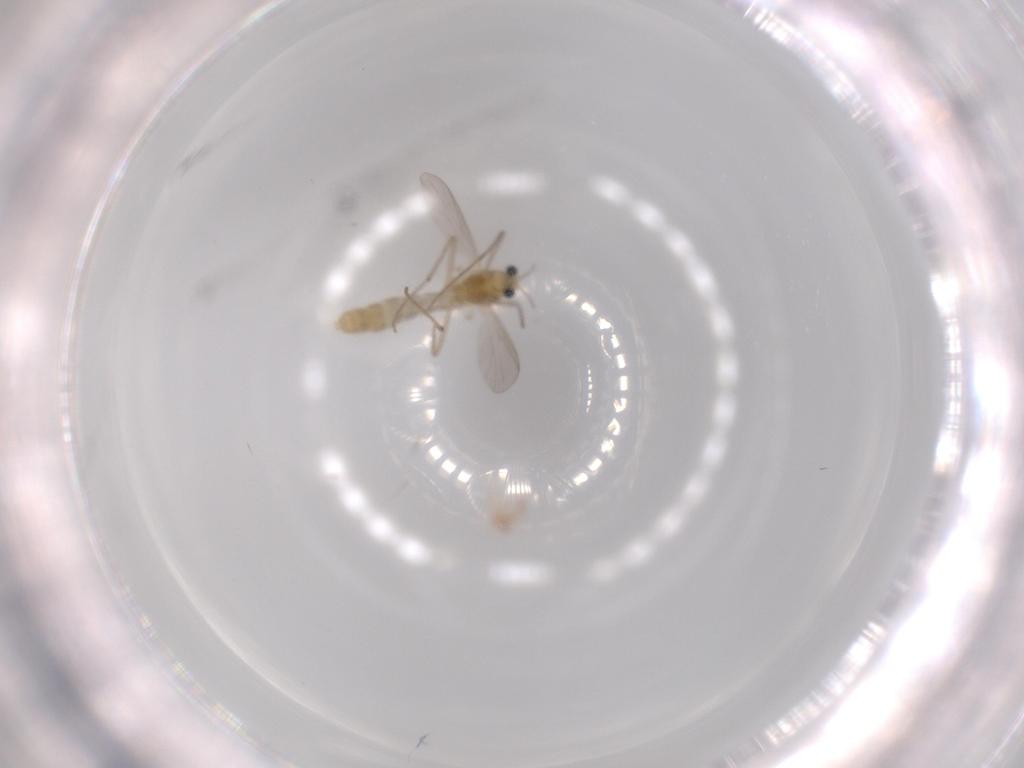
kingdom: Animalia
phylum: Arthropoda
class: Insecta
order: Diptera
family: Chironomidae
